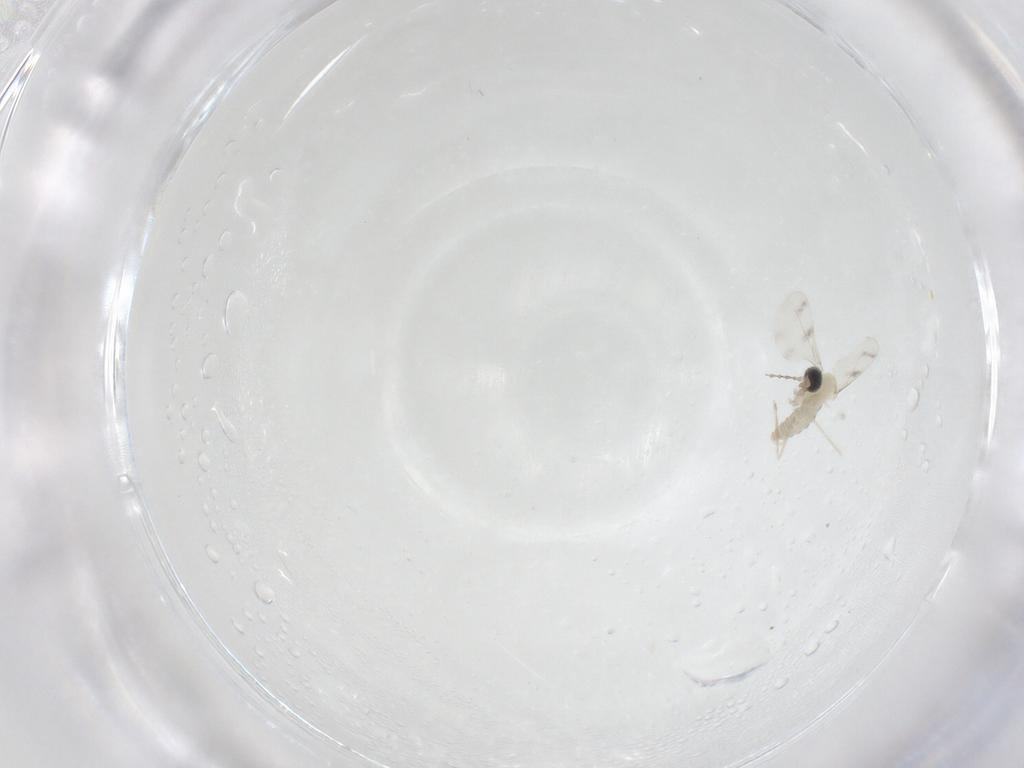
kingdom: Animalia
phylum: Arthropoda
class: Insecta
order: Diptera
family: Cecidomyiidae
